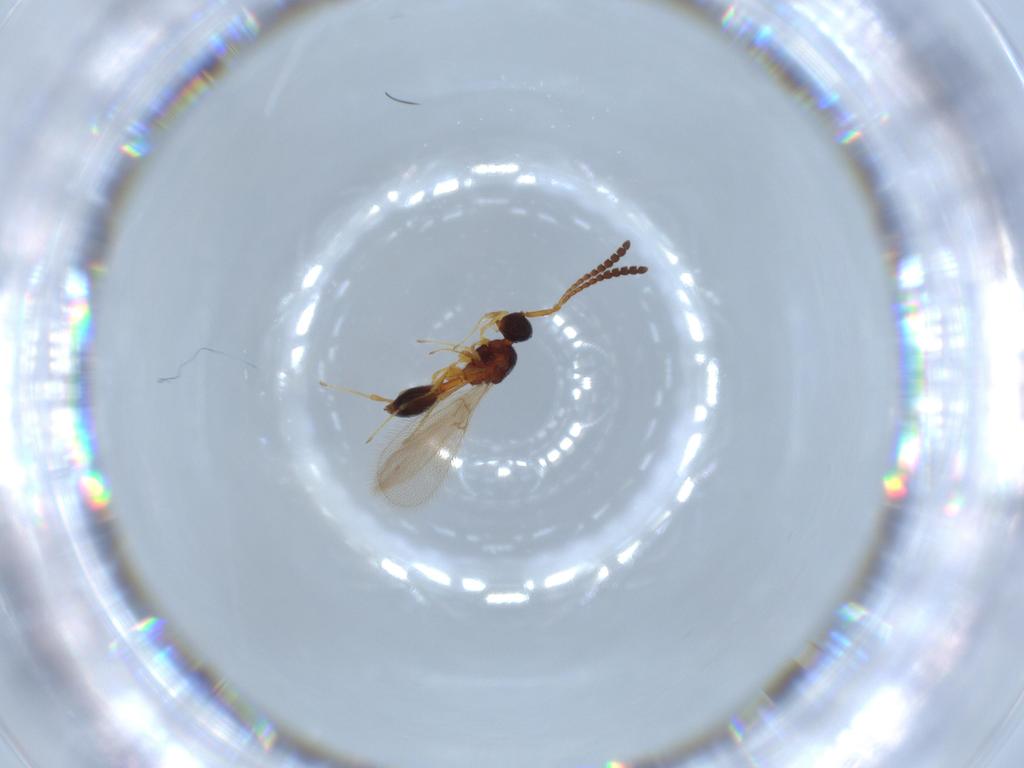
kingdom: Animalia
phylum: Arthropoda
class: Insecta
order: Hymenoptera
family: Diapriidae
